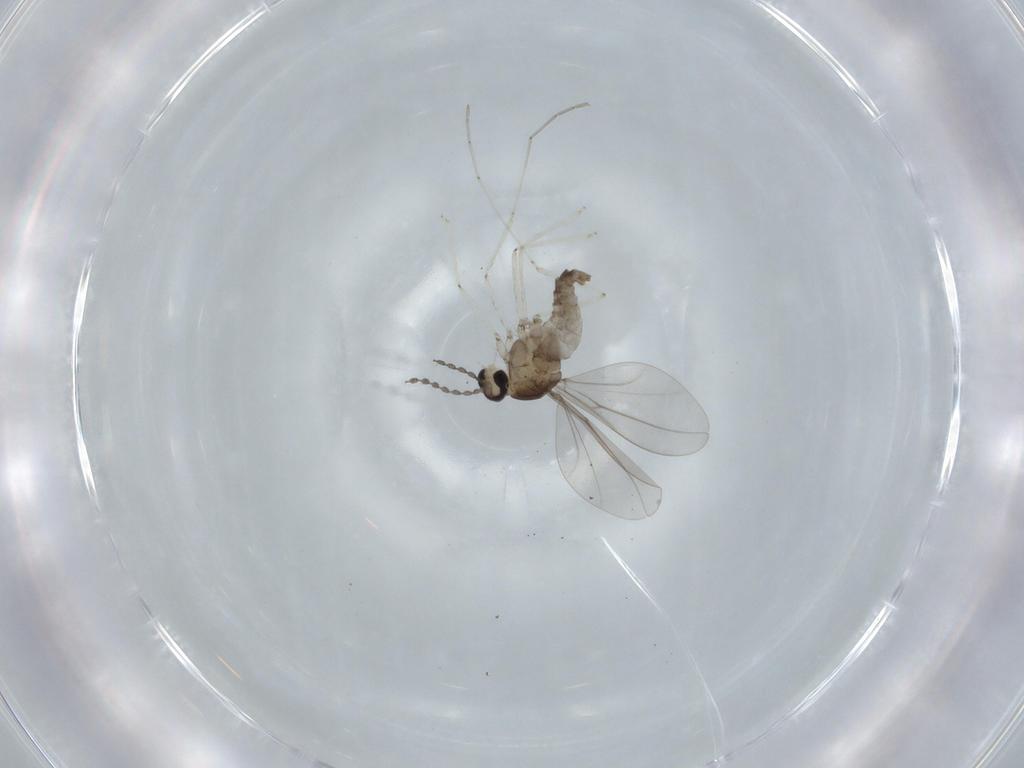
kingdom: Animalia
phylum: Arthropoda
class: Insecta
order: Diptera
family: Cecidomyiidae
